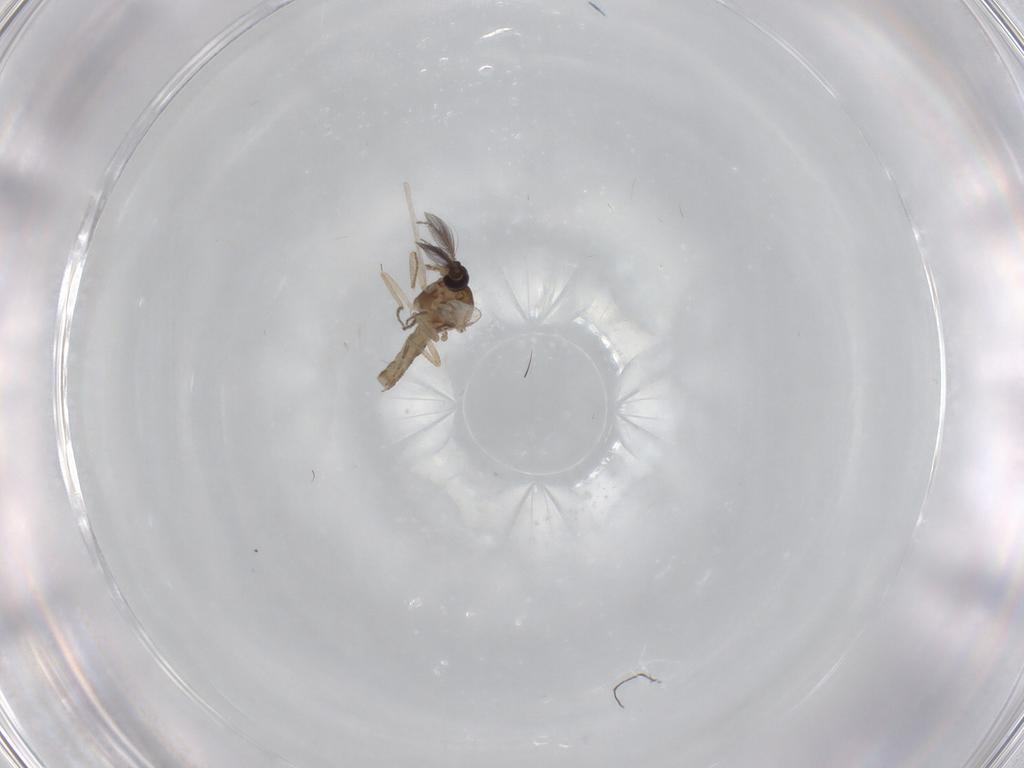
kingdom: Animalia
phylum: Arthropoda
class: Insecta
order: Diptera
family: Ceratopogonidae
